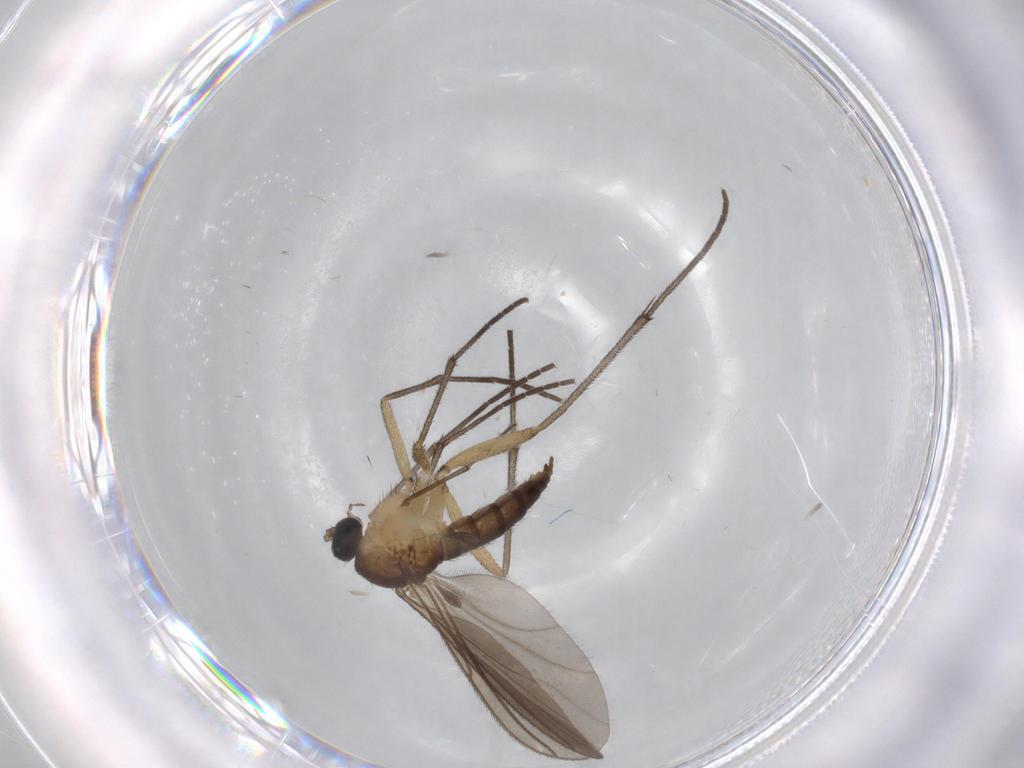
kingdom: Animalia
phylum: Arthropoda
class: Insecta
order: Diptera
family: Sciaridae
